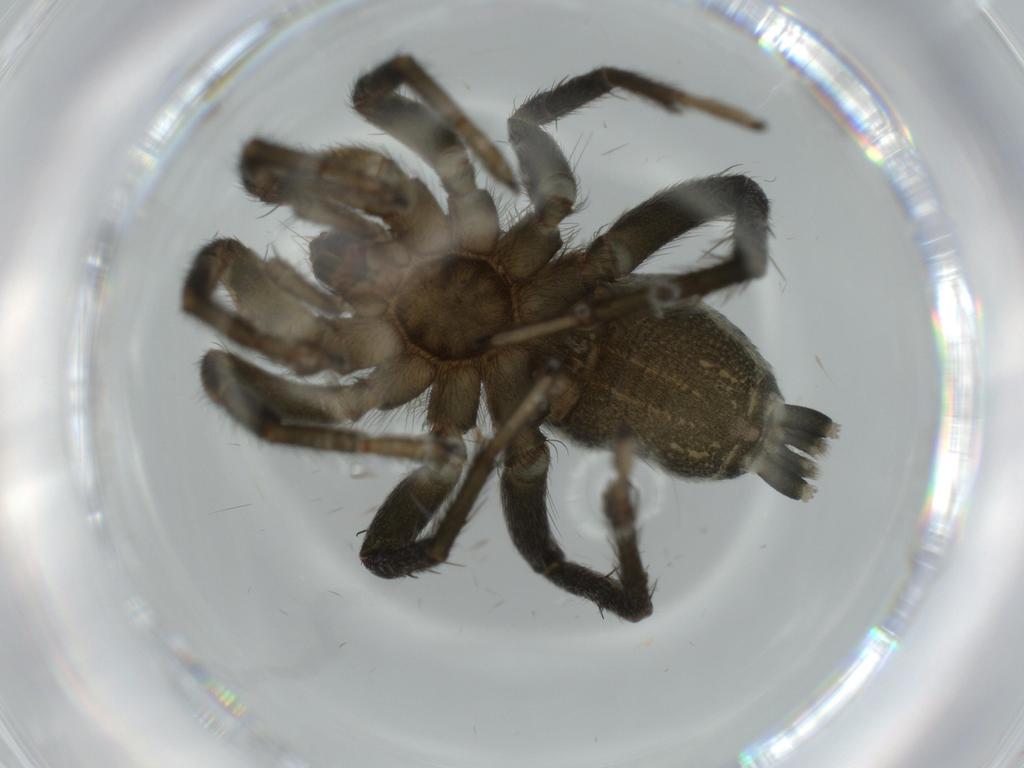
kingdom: Animalia
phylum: Arthropoda
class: Arachnida
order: Araneae
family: Gnaphosidae
